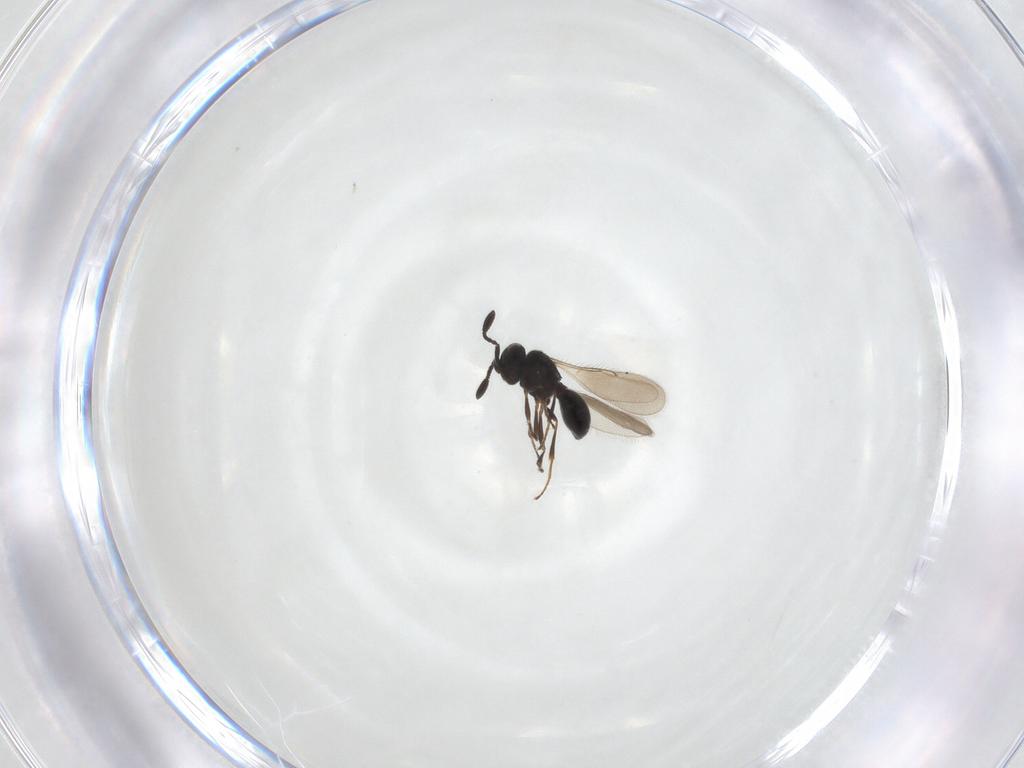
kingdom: Animalia
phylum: Arthropoda
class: Insecta
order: Hymenoptera
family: Scelionidae
